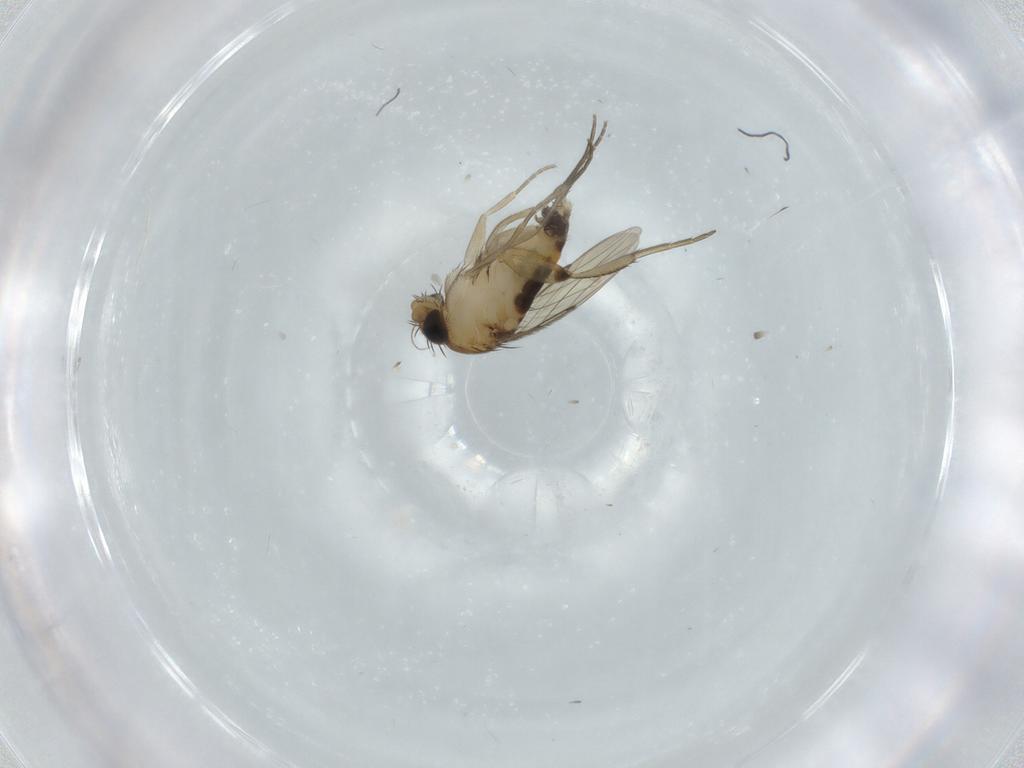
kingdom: Animalia
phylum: Arthropoda
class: Insecta
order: Diptera
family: Phoridae
